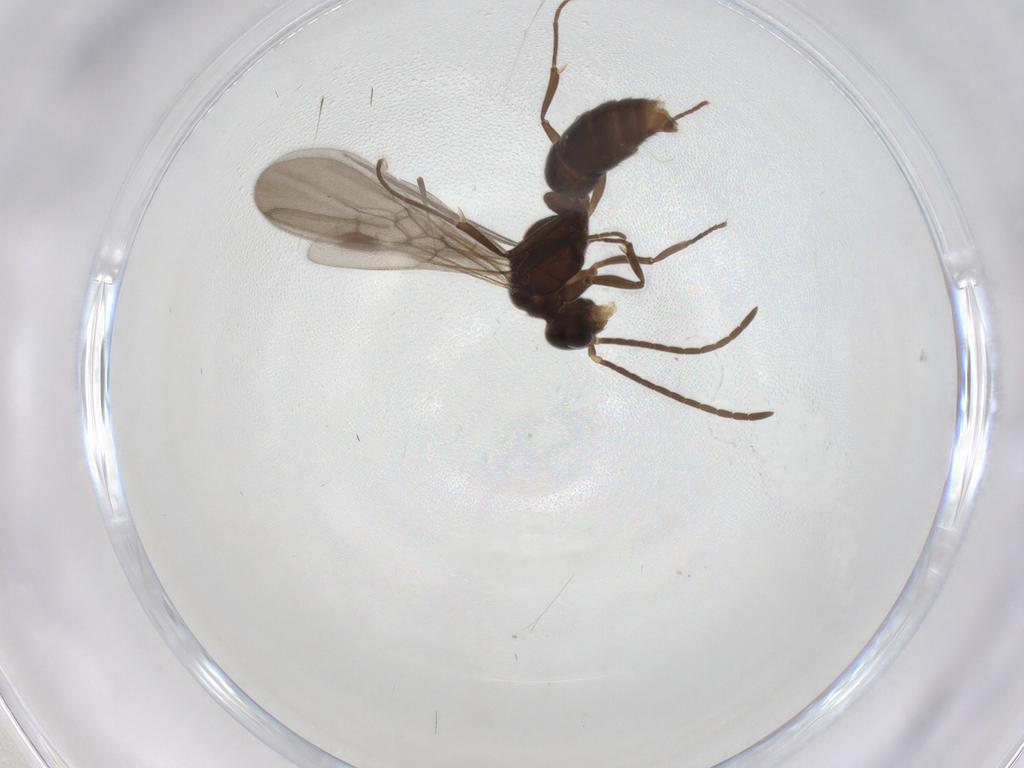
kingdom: Animalia
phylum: Arthropoda
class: Insecta
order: Hymenoptera
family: Formicidae
